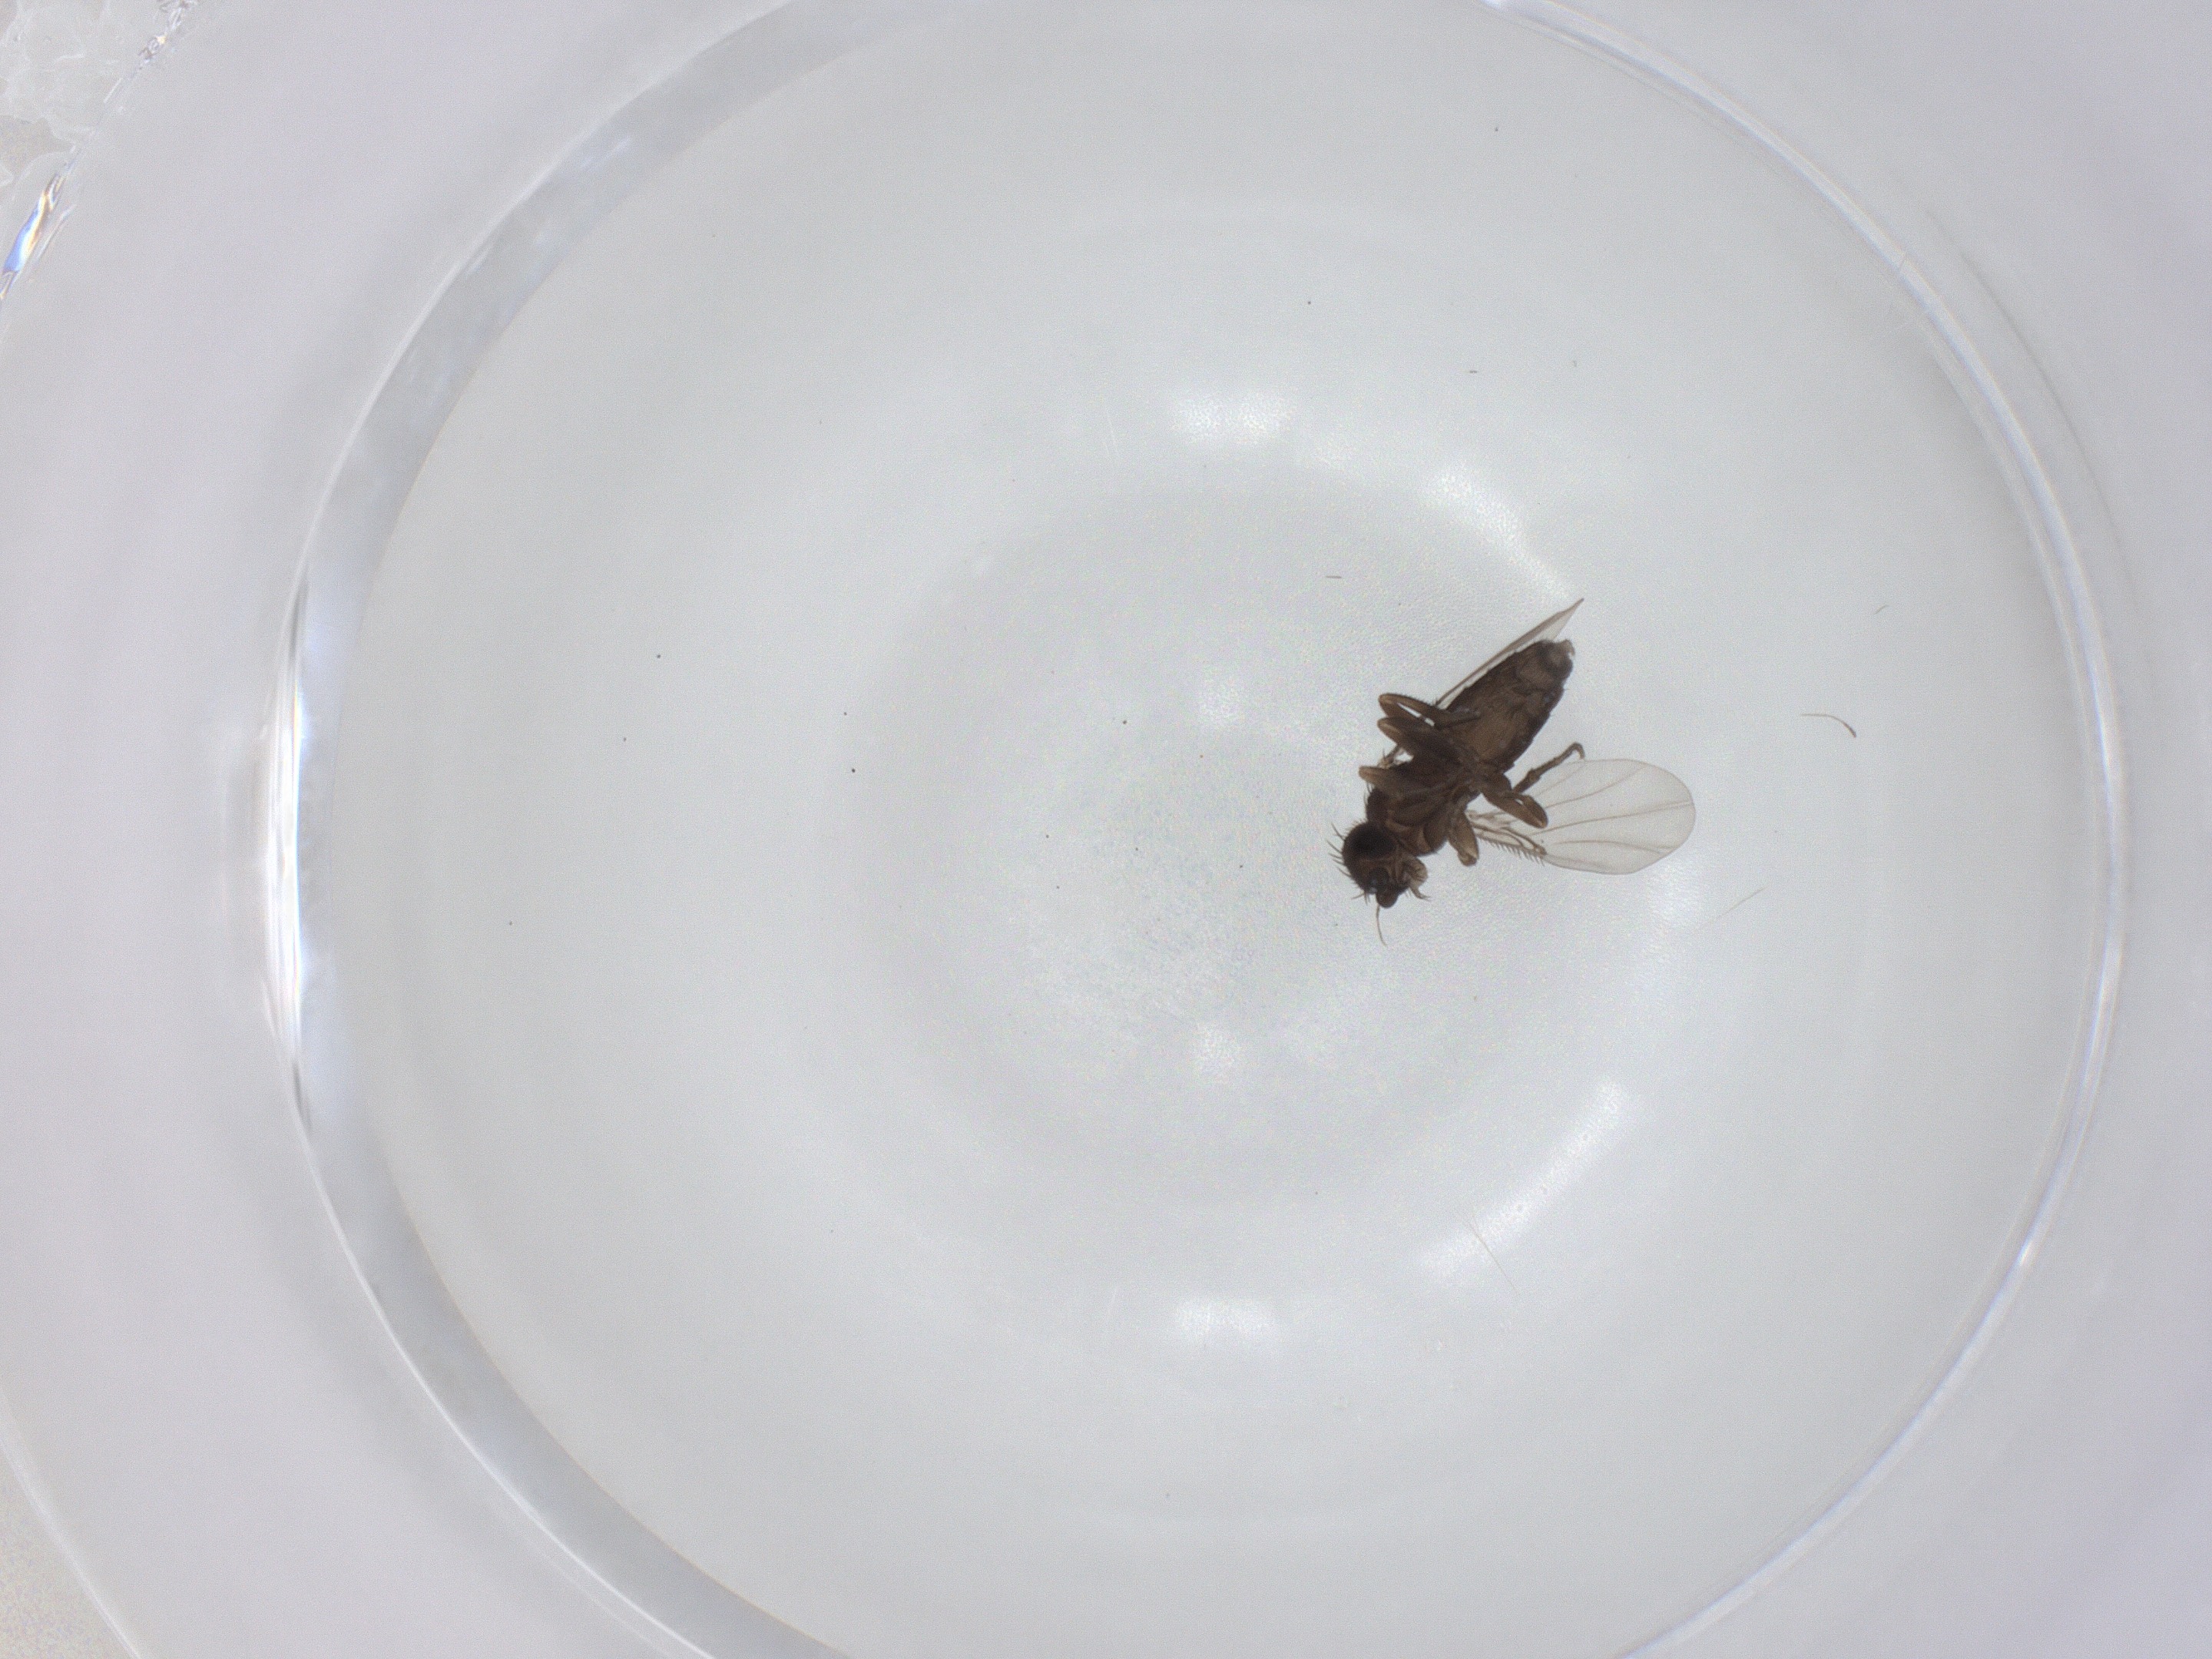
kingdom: Animalia
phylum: Arthropoda
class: Insecta
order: Diptera
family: Phoridae
